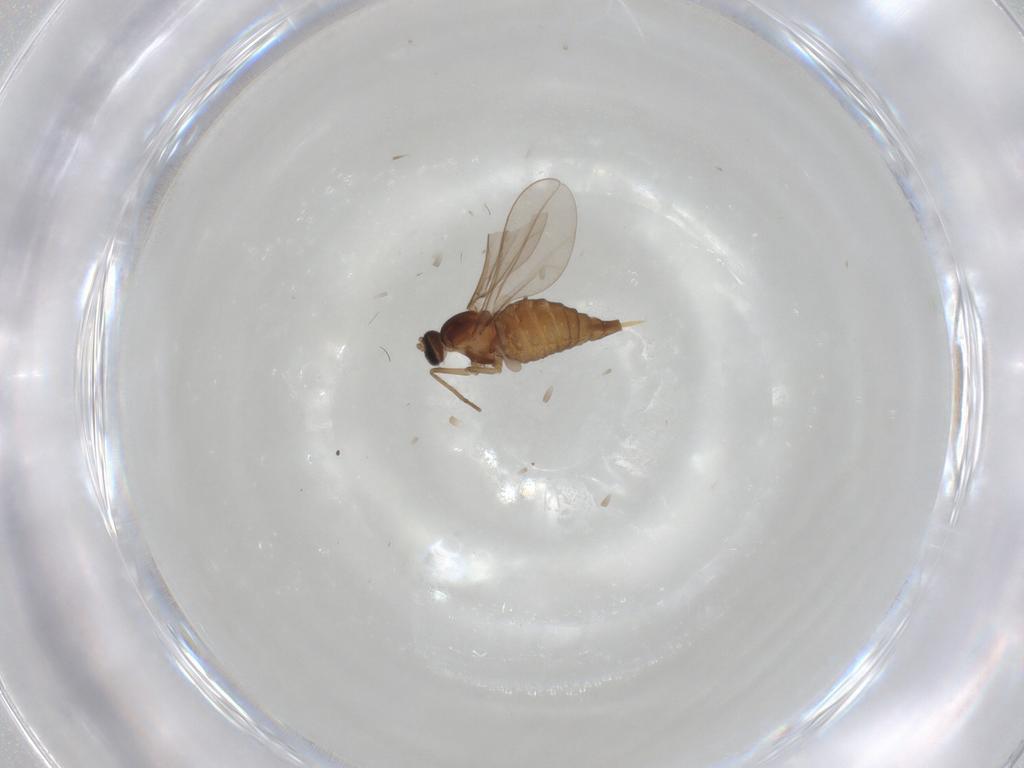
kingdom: Animalia
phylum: Arthropoda
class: Insecta
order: Diptera
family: Cecidomyiidae
